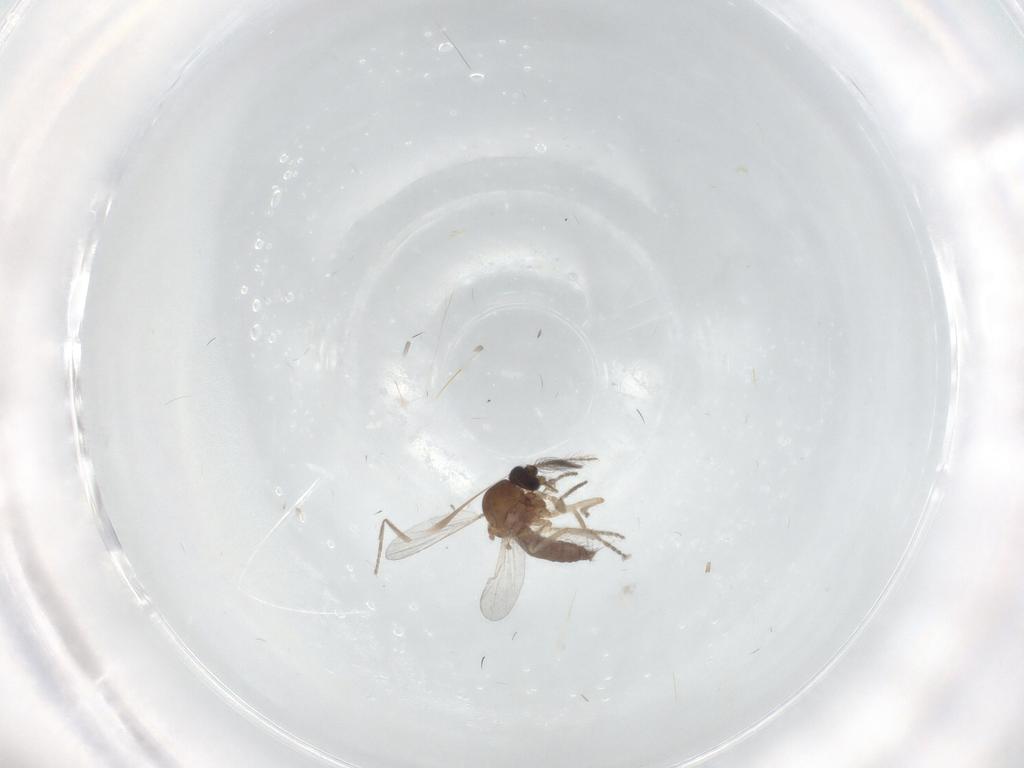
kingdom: Animalia
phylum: Arthropoda
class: Insecta
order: Diptera
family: Ceratopogonidae
